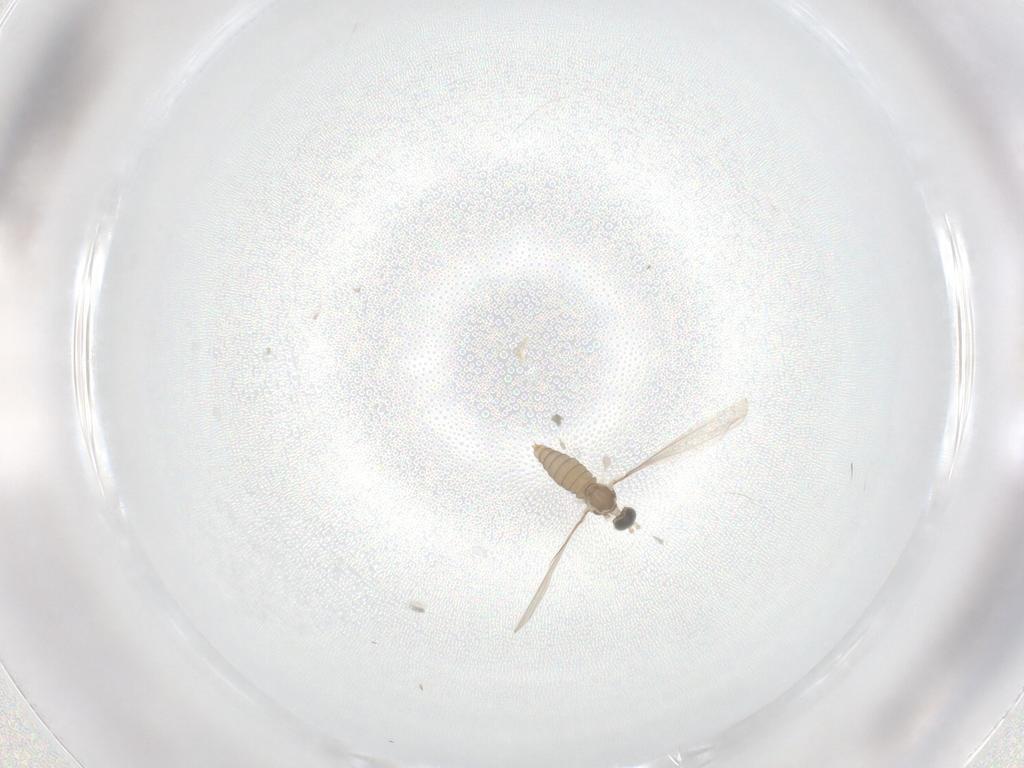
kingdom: Animalia
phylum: Arthropoda
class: Insecta
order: Diptera
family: Cecidomyiidae
